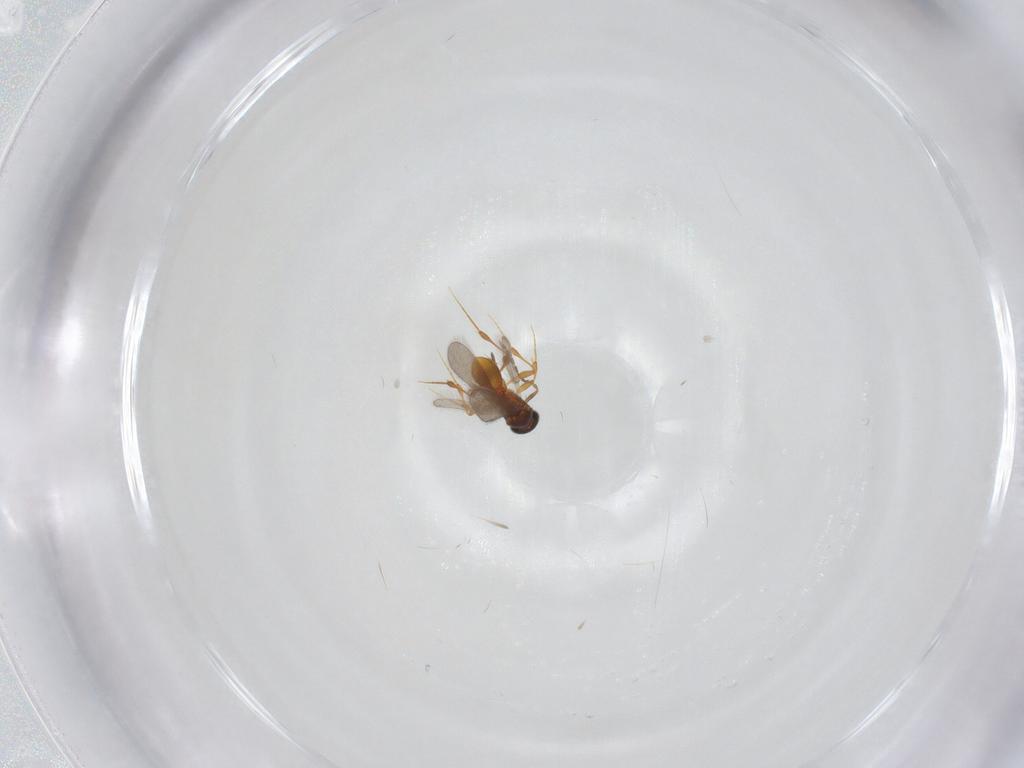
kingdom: Animalia
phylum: Arthropoda
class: Insecta
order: Hymenoptera
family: Platygastridae
